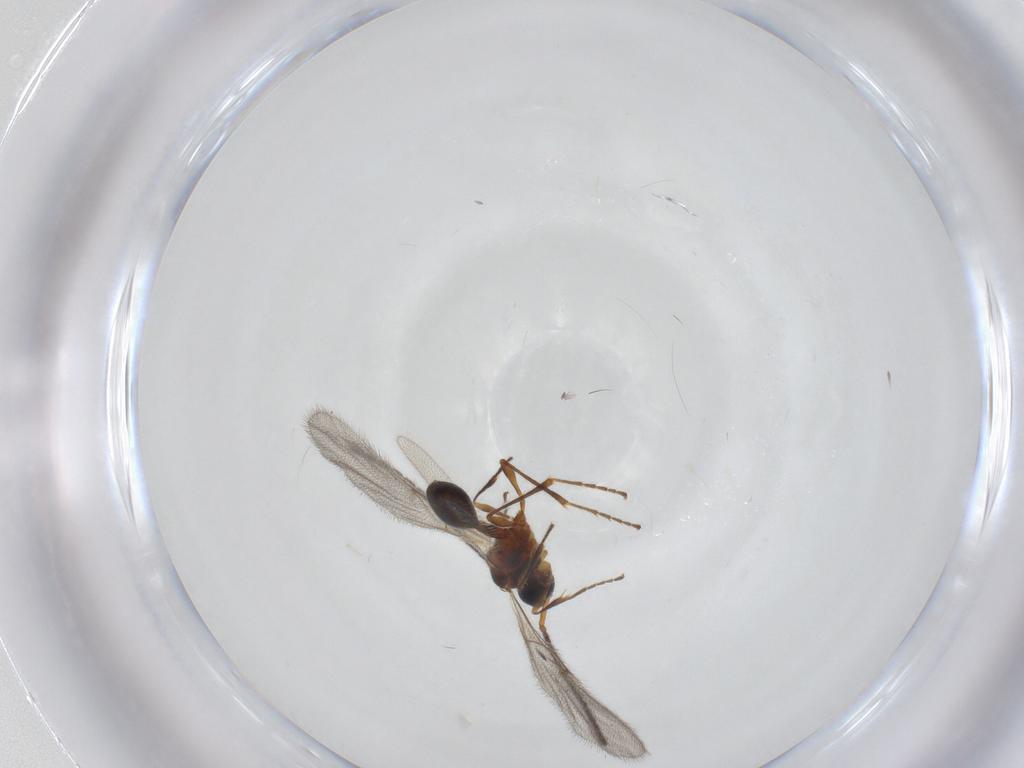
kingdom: Animalia
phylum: Arthropoda
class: Insecta
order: Hymenoptera
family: Diapriidae
